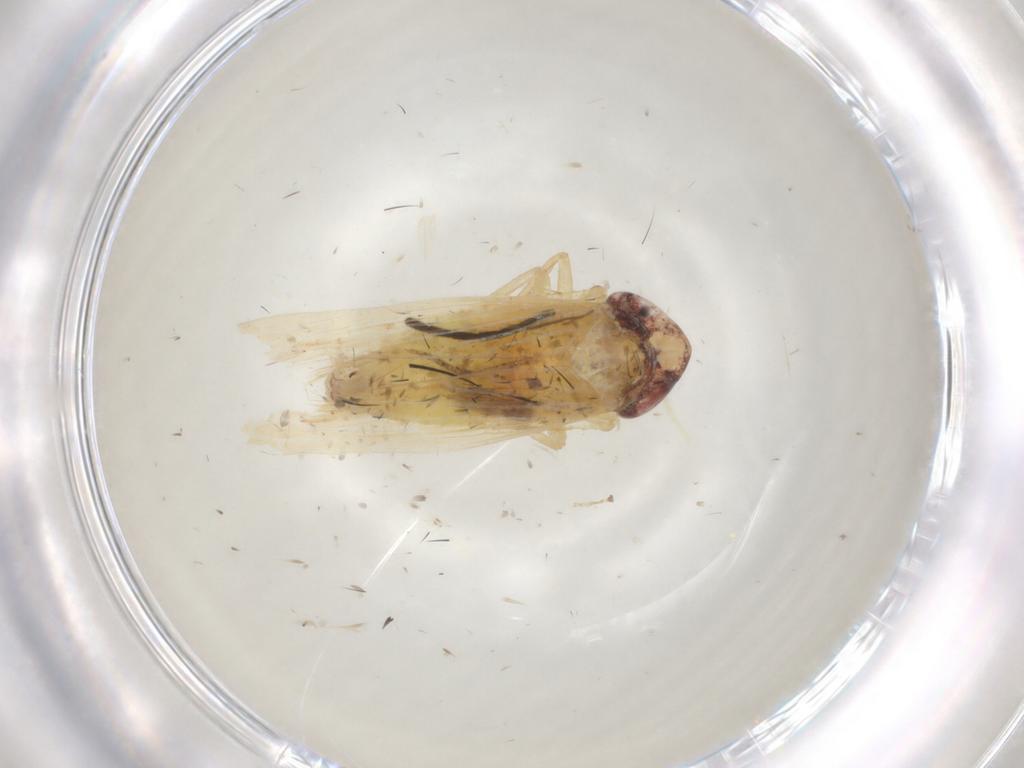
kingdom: Animalia
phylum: Arthropoda
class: Insecta
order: Hemiptera
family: Cicadellidae
